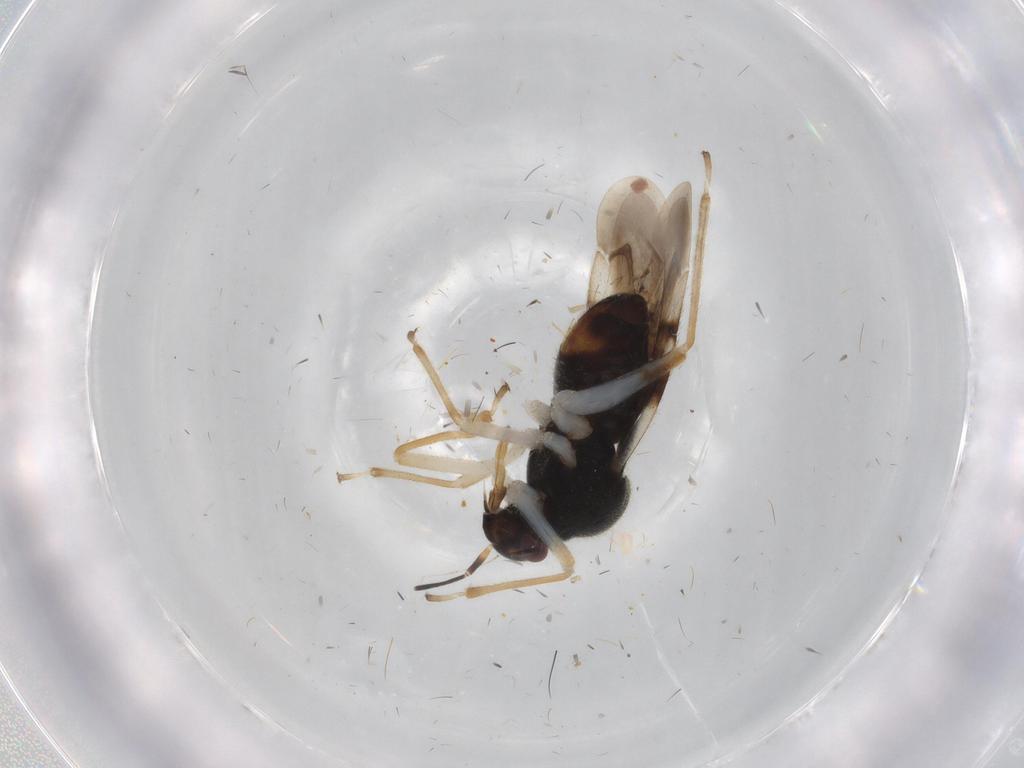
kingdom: Animalia
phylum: Arthropoda
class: Insecta
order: Hemiptera
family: Miridae
